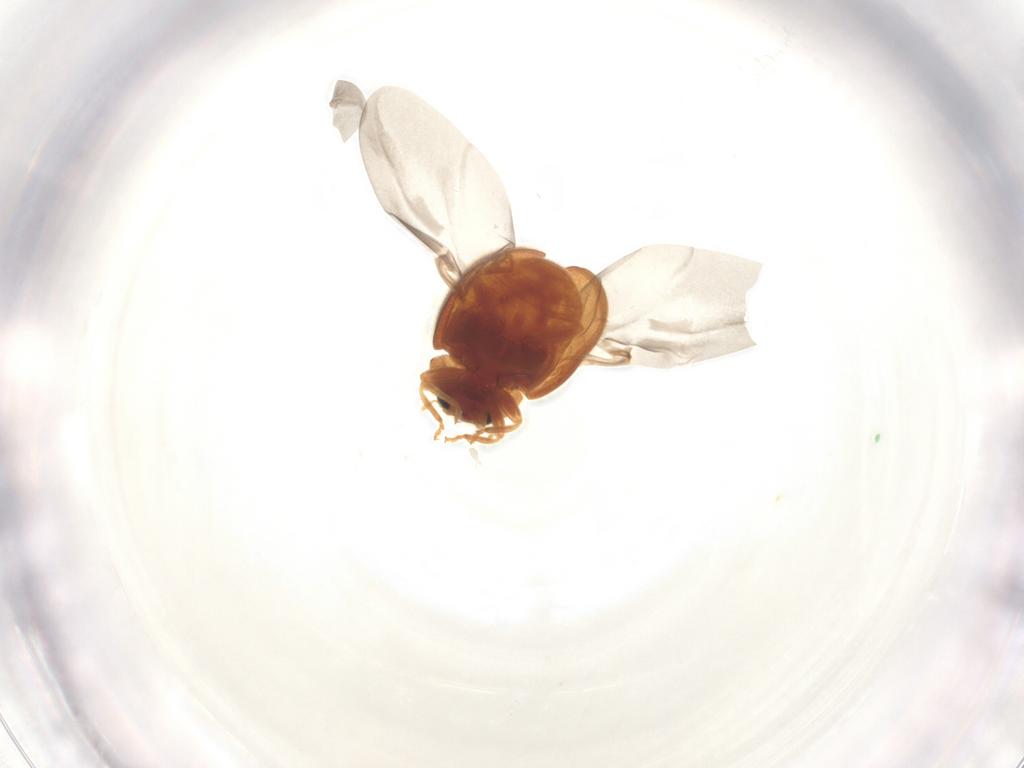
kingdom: Animalia
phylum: Arthropoda
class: Insecta
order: Coleoptera
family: Coccinellidae
